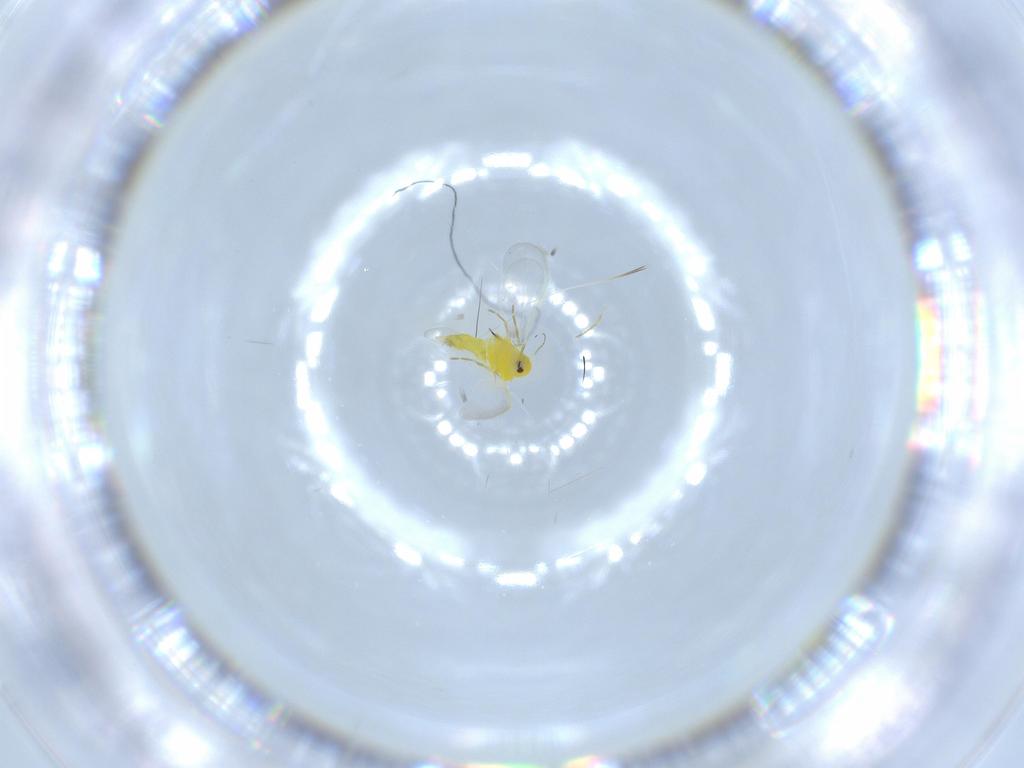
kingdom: Animalia
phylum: Arthropoda
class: Insecta
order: Hemiptera
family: Aleyrodidae
